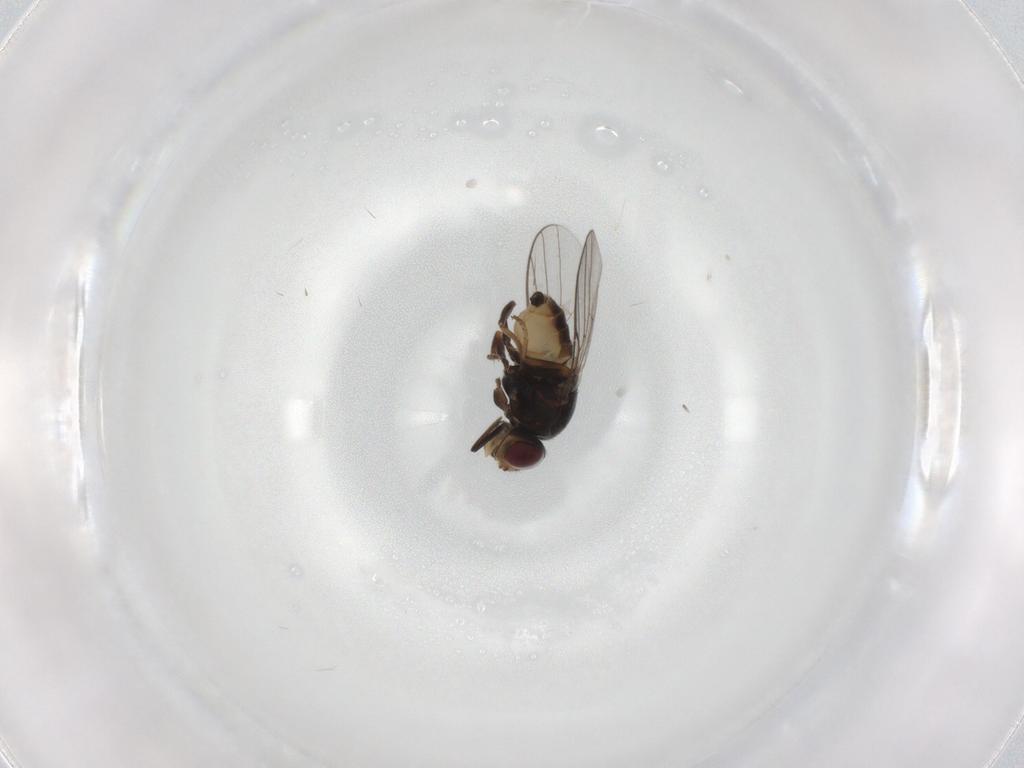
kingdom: Animalia
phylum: Arthropoda
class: Insecta
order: Diptera
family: Chloropidae
